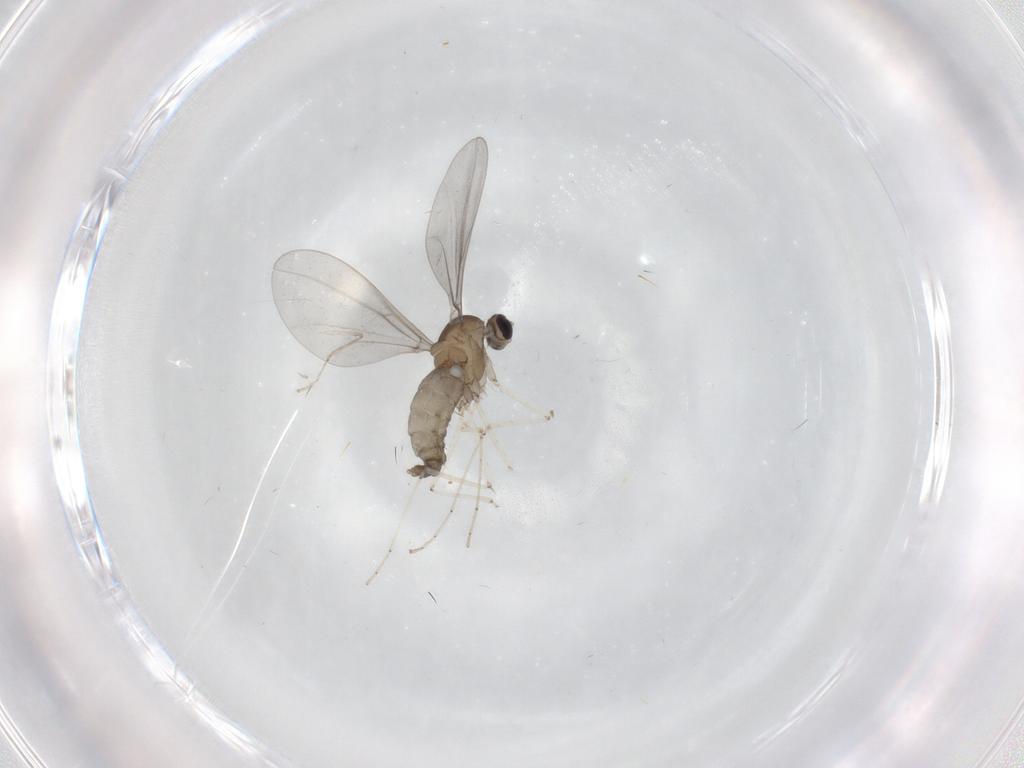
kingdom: Animalia
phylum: Arthropoda
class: Insecta
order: Diptera
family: Cecidomyiidae
